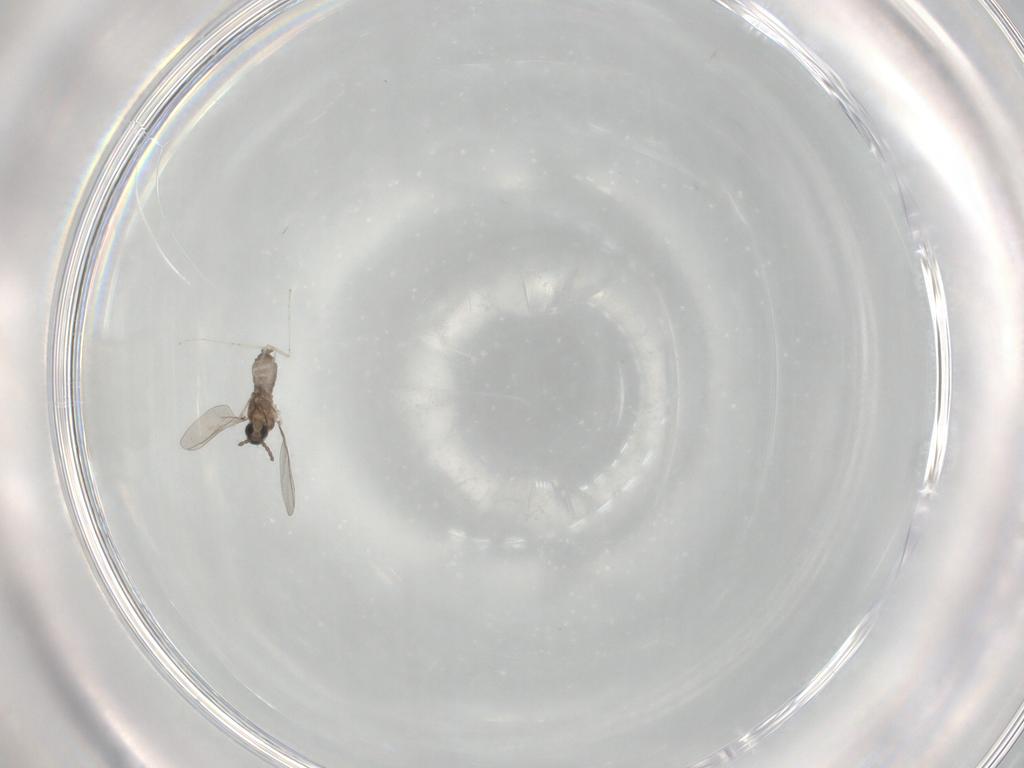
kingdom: Animalia
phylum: Arthropoda
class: Insecta
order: Diptera
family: Cecidomyiidae
